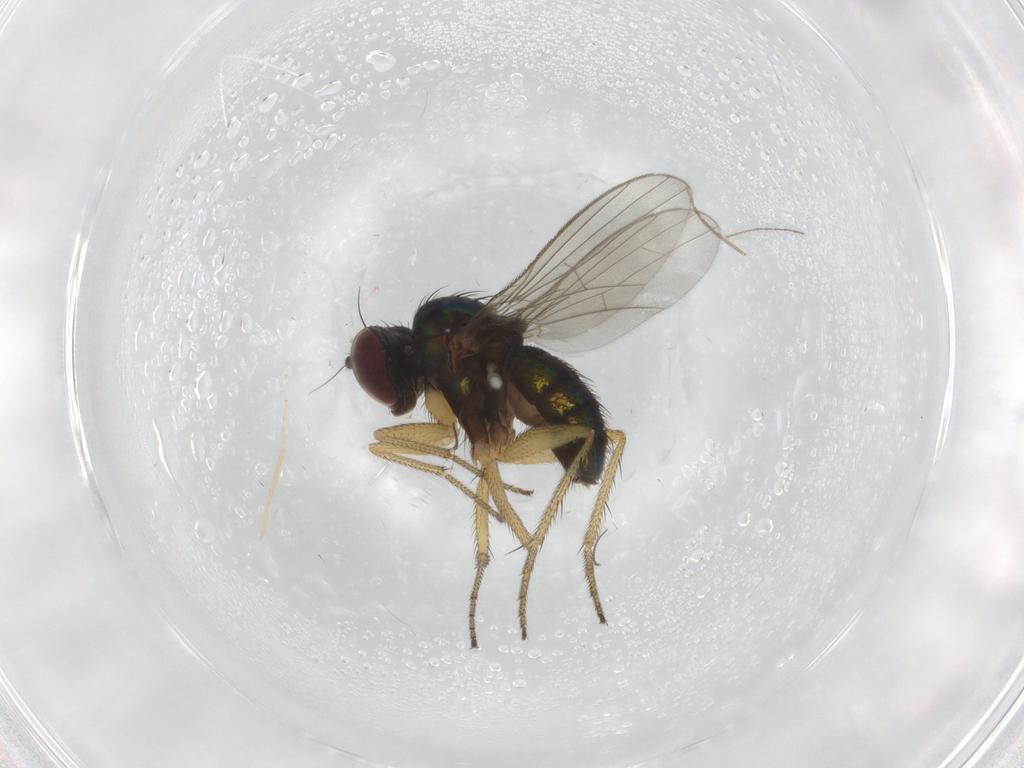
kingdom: Animalia
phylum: Arthropoda
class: Insecta
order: Diptera
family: Chironomidae
